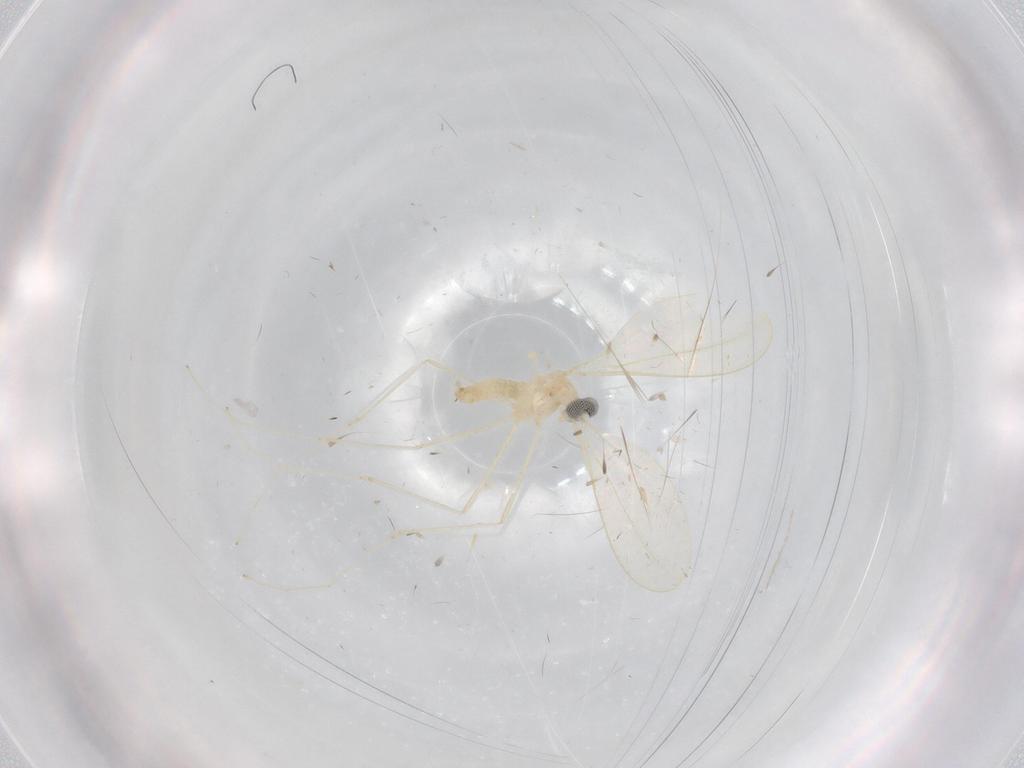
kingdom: Animalia
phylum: Arthropoda
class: Insecta
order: Diptera
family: Cecidomyiidae
